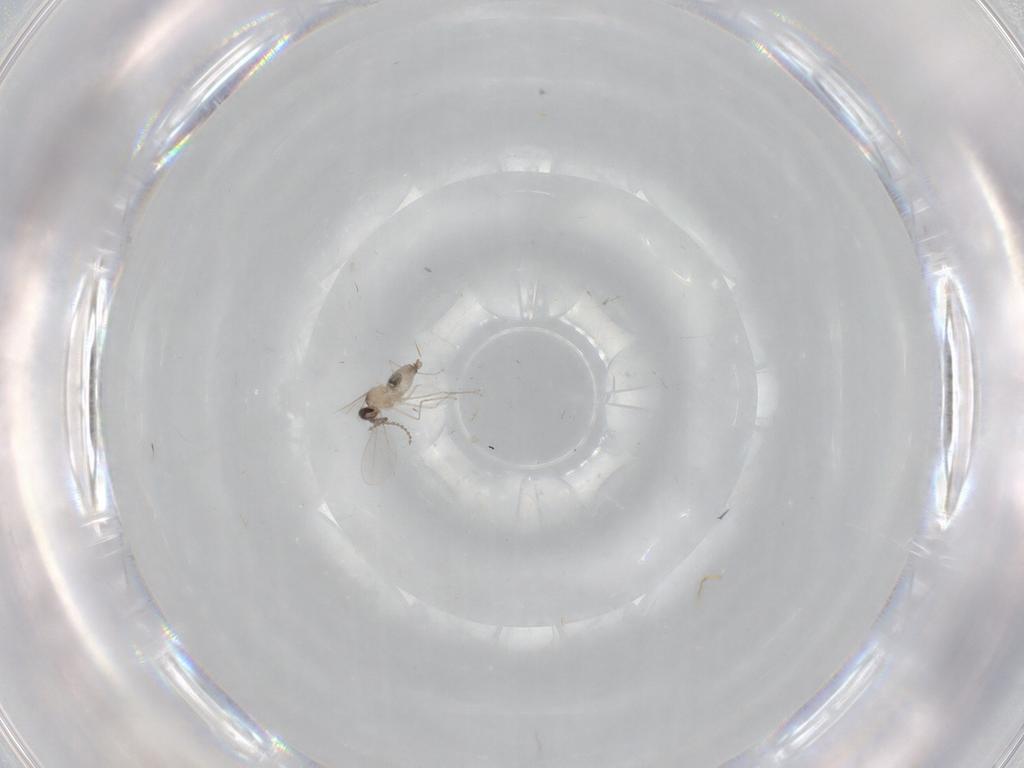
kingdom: Animalia
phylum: Arthropoda
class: Insecta
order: Diptera
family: Cecidomyiidae
